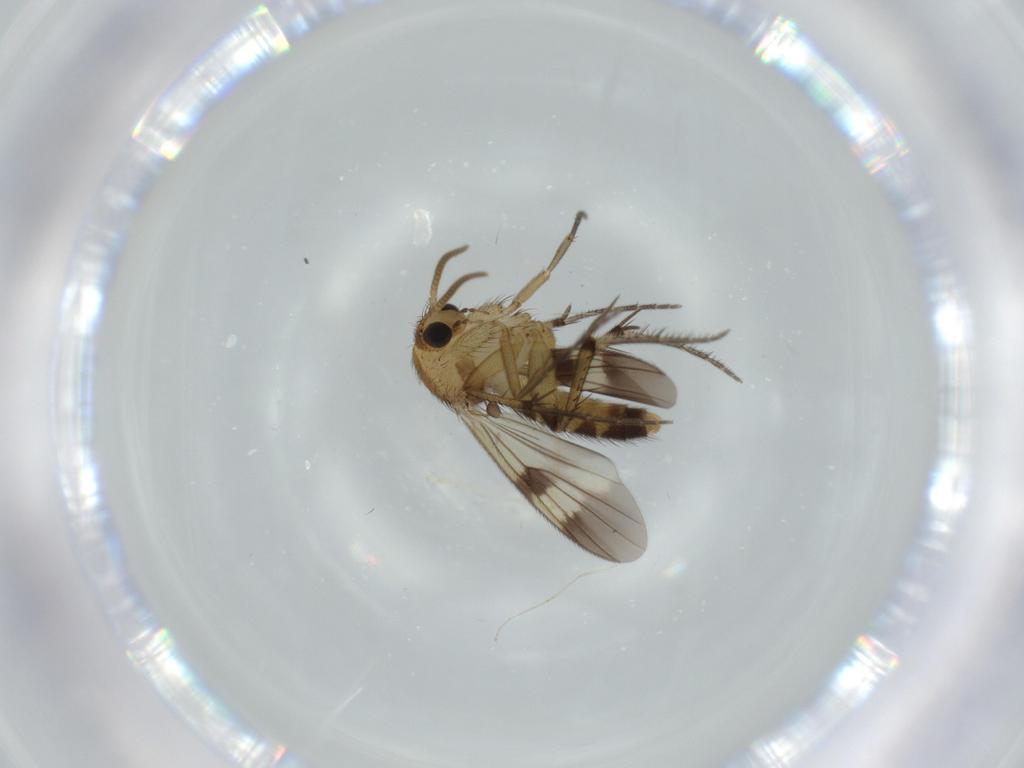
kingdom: Animalia
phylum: Arthropoda
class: Insecta
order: Diptera
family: Mycetophilidae
